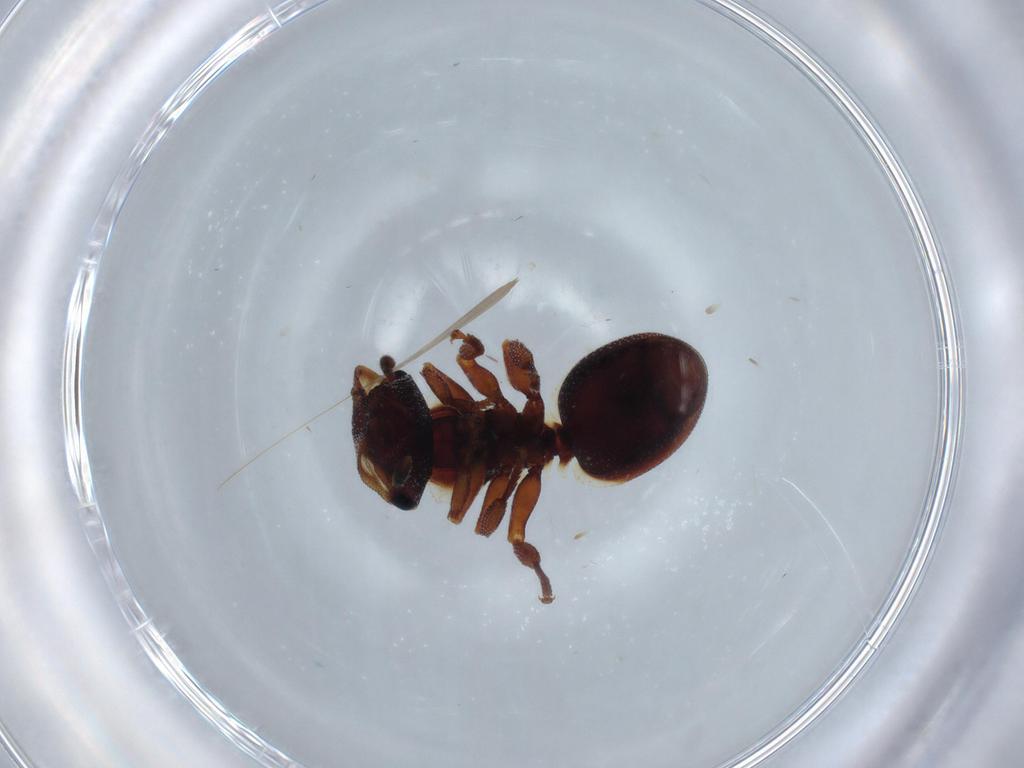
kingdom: Animalia
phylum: Arthropoda
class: Insecta
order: Hymenoptera
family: Formicidae
